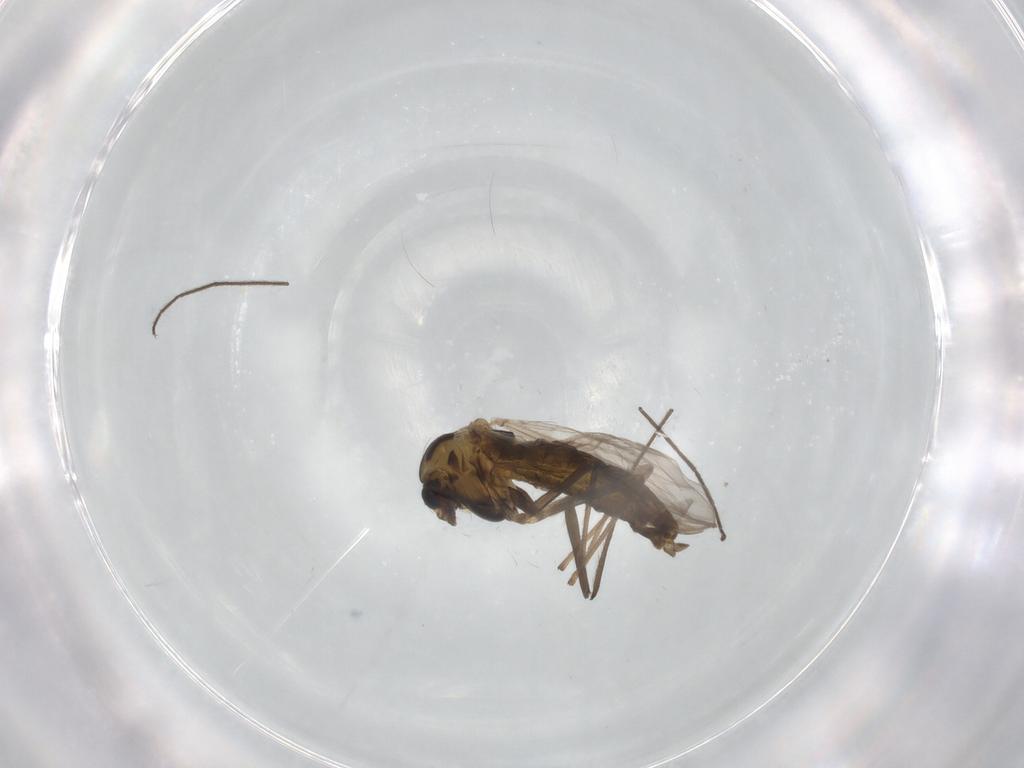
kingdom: Animalia
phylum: Arthropoda
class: Insecta
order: Diptera
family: Chironomidae
